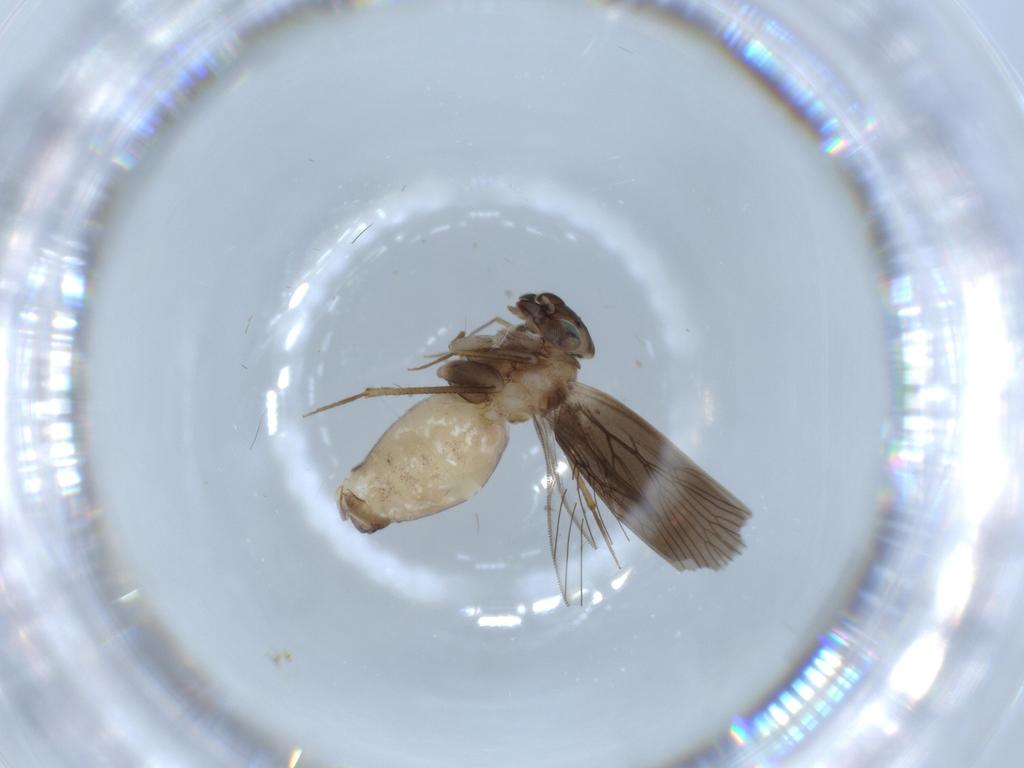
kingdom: Animalia
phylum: Arthropoda
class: Insecta
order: Psocodea
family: Lepidopsocidae
